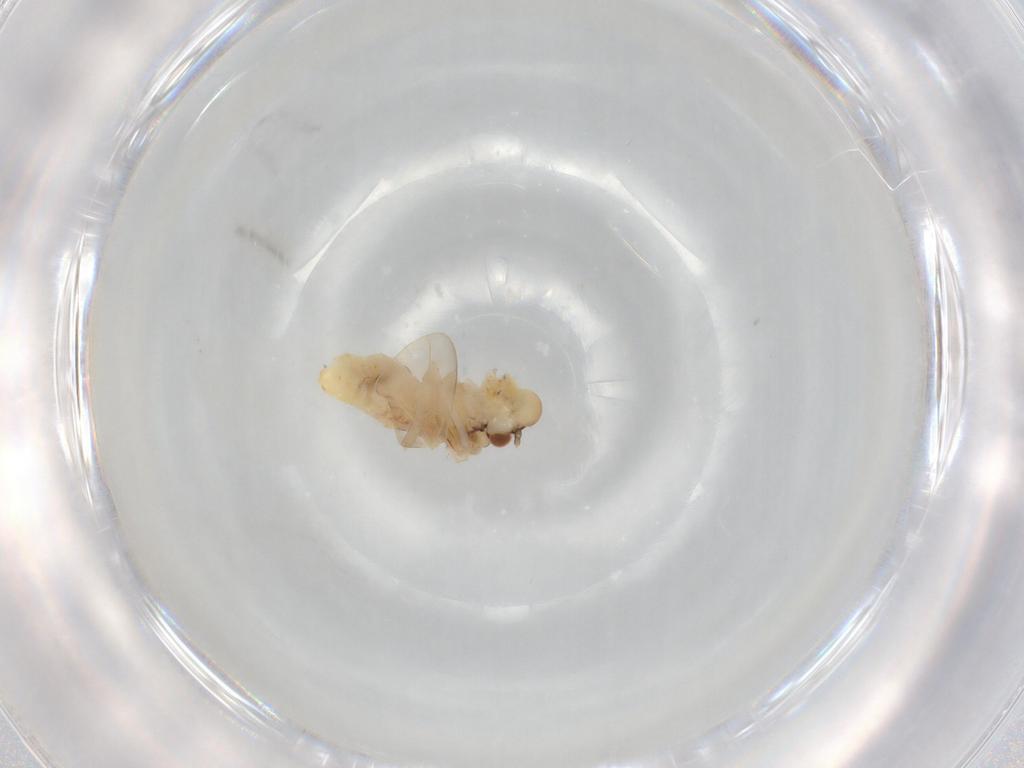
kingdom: Animalia
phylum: Arthropoda
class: Insecta
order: Psocodea
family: Caeciliusidae
